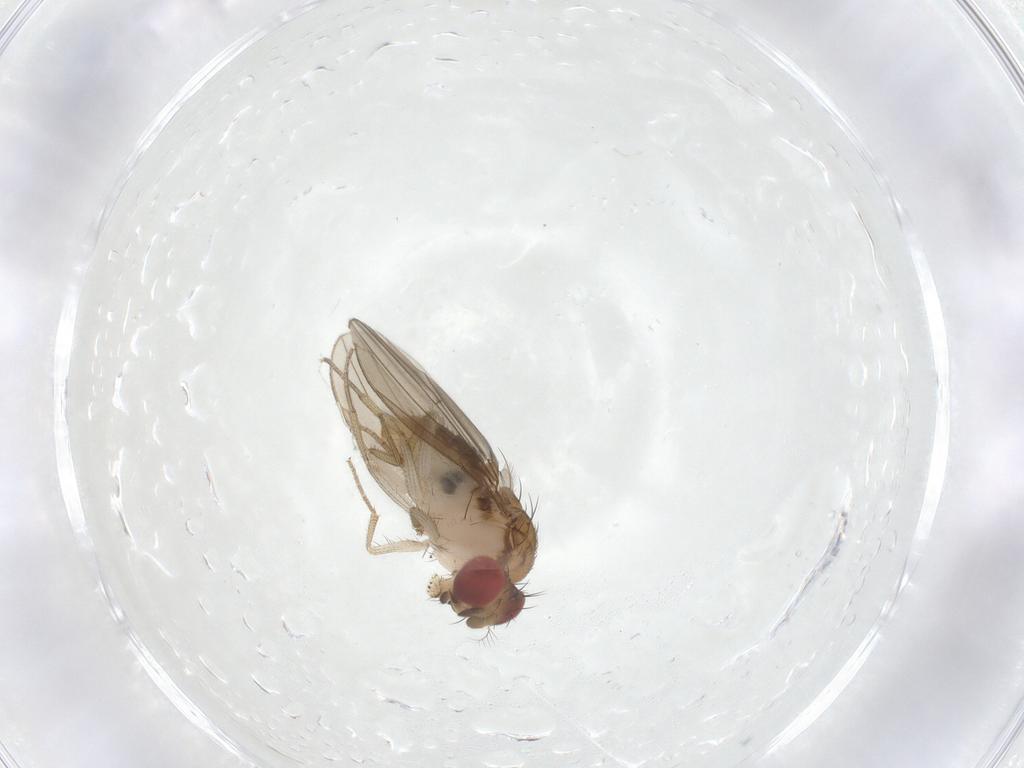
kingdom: Animalia
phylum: Arthropoda
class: Insecta
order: Diptera
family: Drosophilidae
